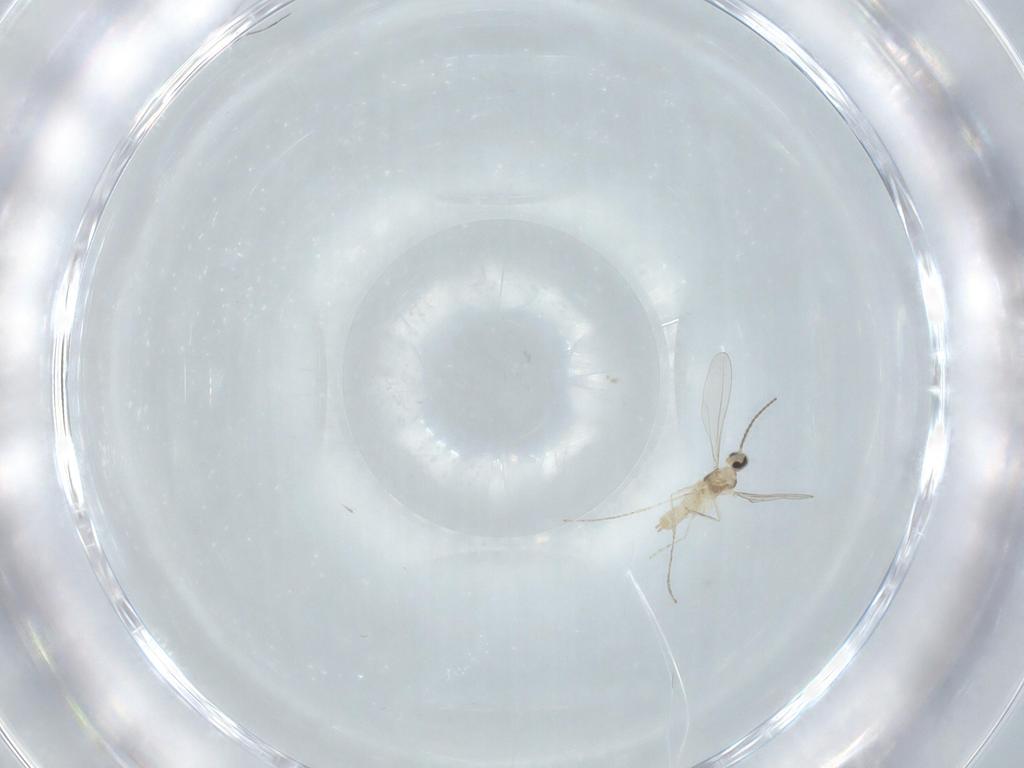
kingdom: Animalia
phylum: Arthropoda
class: Insecta
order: Diptera
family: Cecidomyiidae
